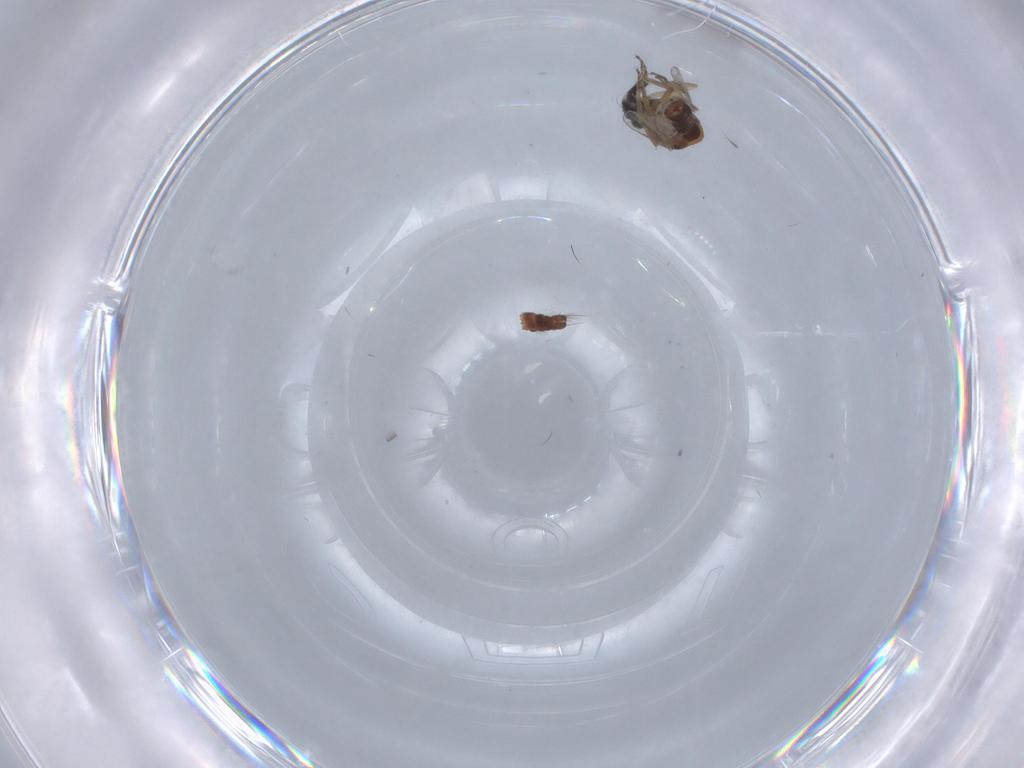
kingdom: Animalia
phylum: Arthropoda
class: Insecta
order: Diptera
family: Ceratopogonidae
